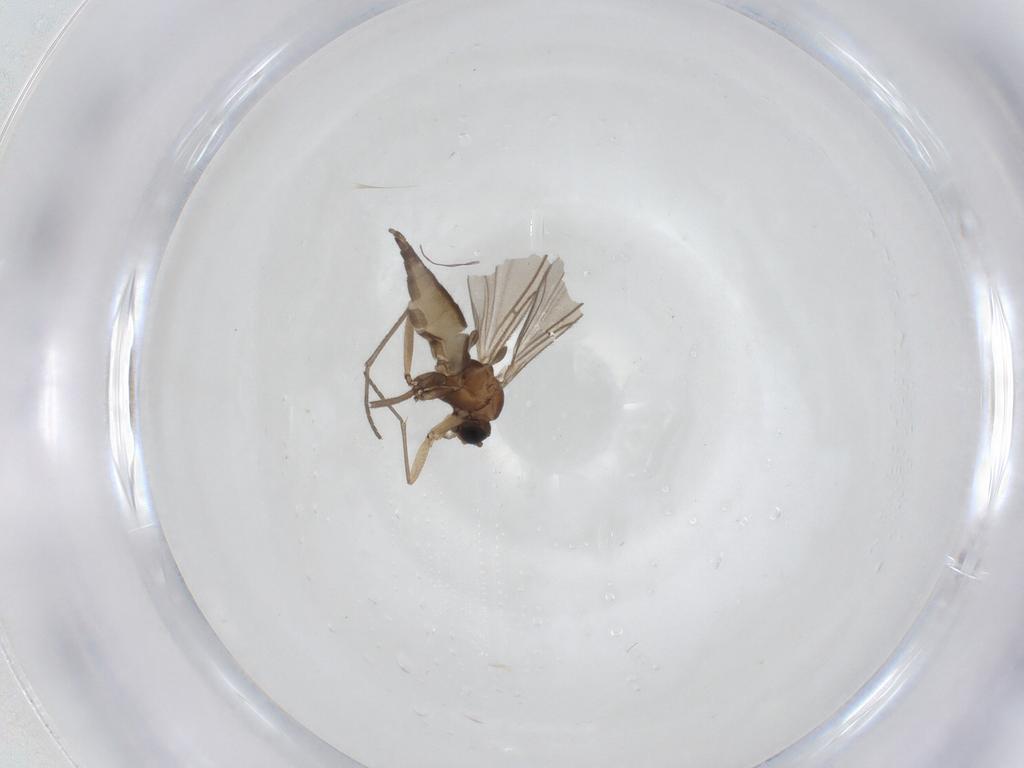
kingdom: Animalia
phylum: Arthropoda
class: Insecta
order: Diptera
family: Sciaridae
